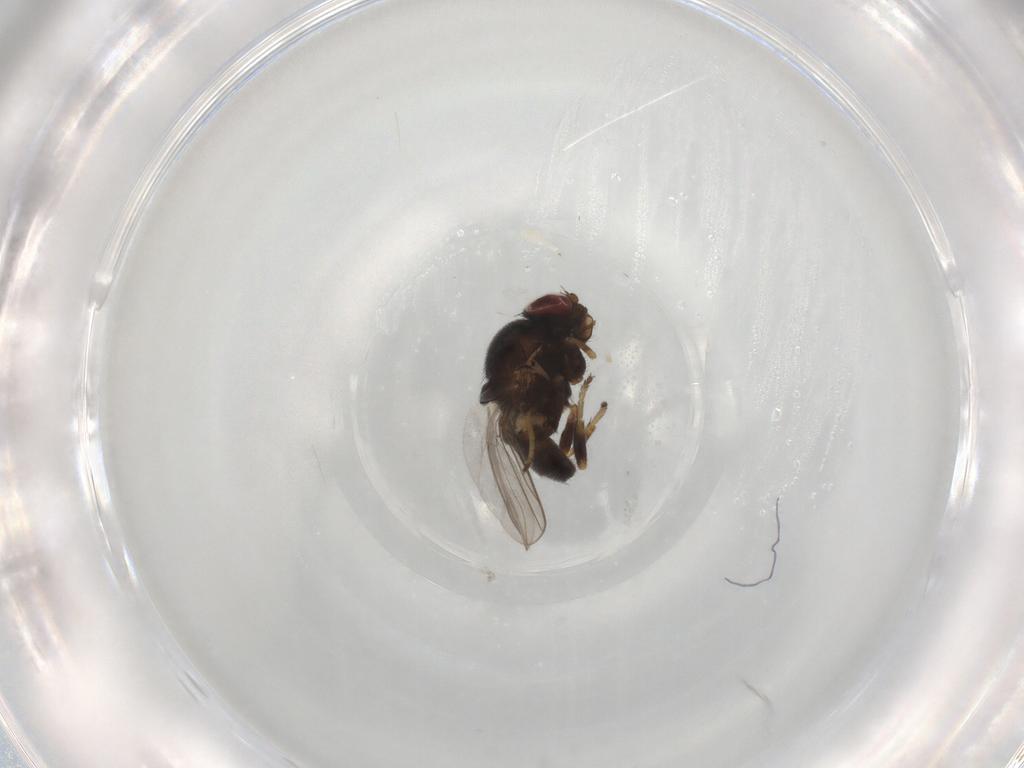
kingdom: Animalia
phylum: Arthropoda
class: Insecta
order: Diptera
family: Chloropidae
